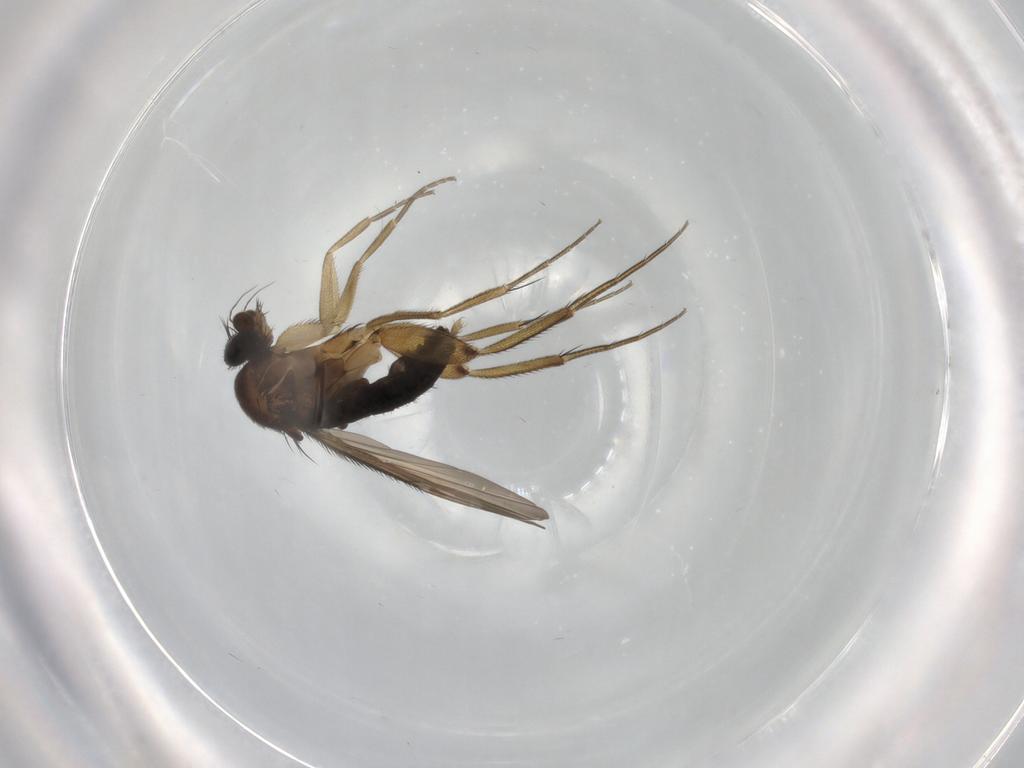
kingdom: Animalia
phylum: Arthropoda
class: Insecta
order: Diptera
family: Phoridae
